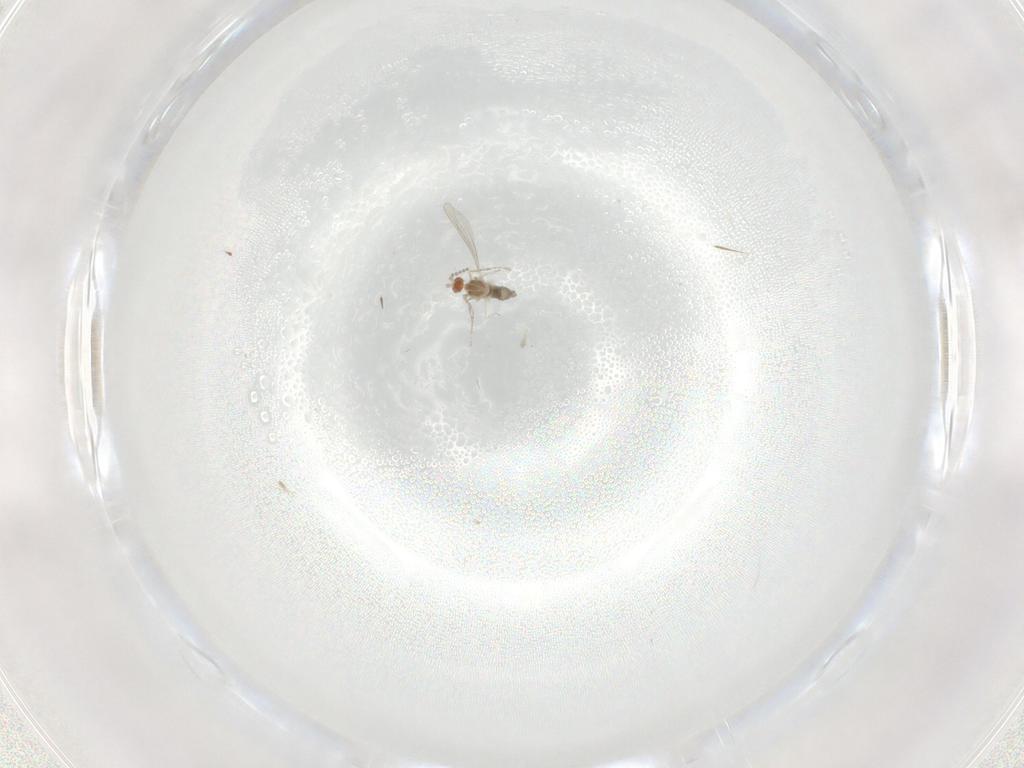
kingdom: Animalia
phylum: Arthropoda
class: Insecta
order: Diptera
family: Cecidomyiidae
